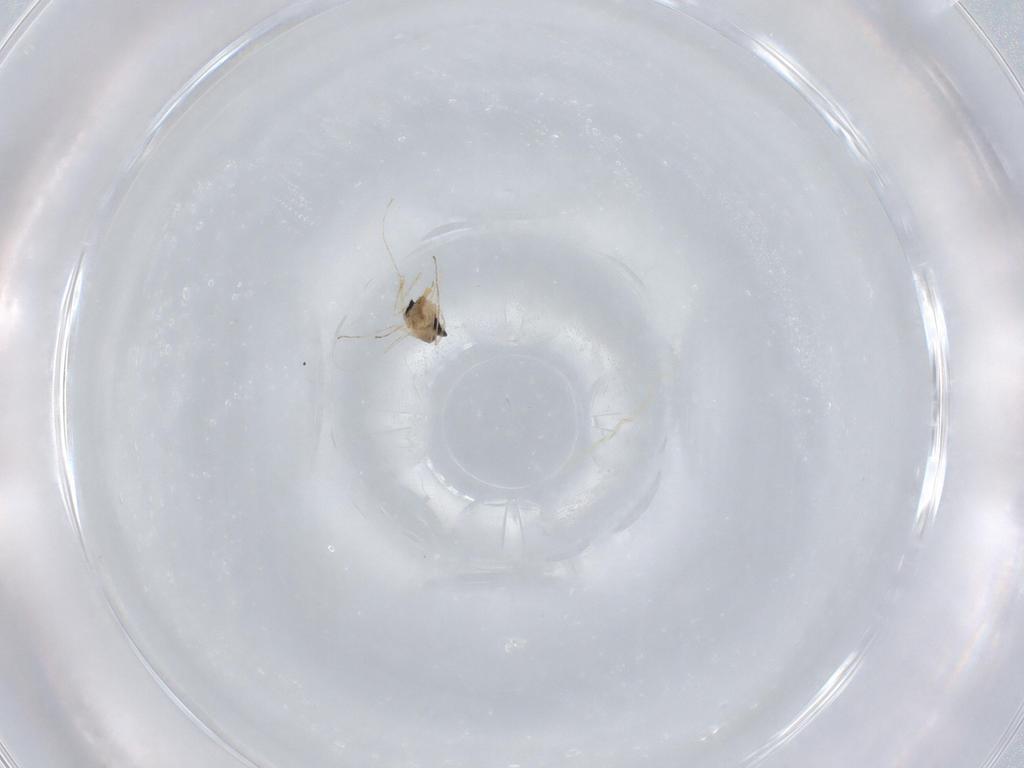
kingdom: Animalia
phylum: Arthropoda
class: Insecta
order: Diptera
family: Cecidomyiidae
